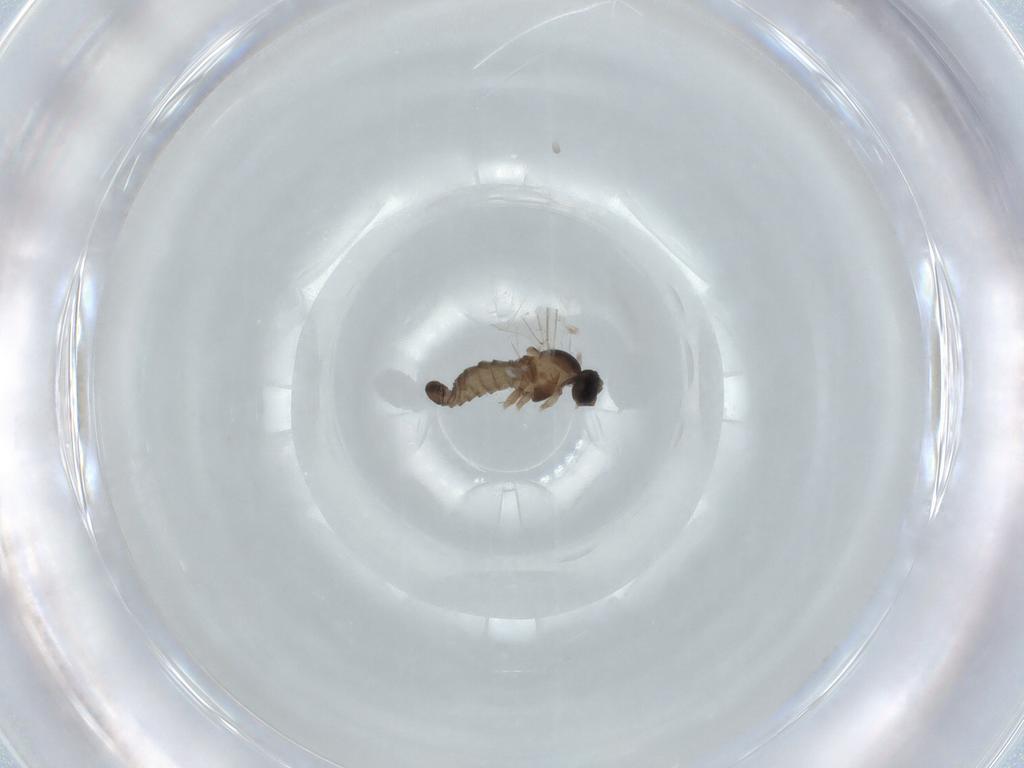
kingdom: Animalia
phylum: Arthropoda
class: Insecta
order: Diptera
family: Cecidomyiidae
